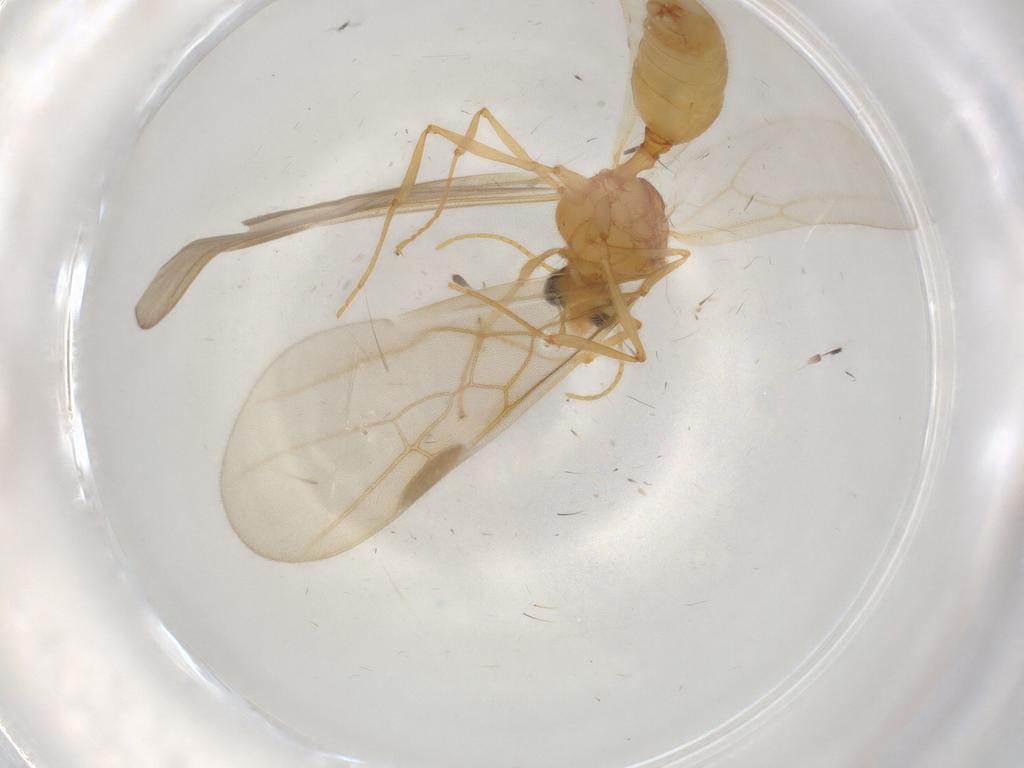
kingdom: Animalia
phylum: Arthropoda
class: Insecta
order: Hymenoptera
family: Formicidae
